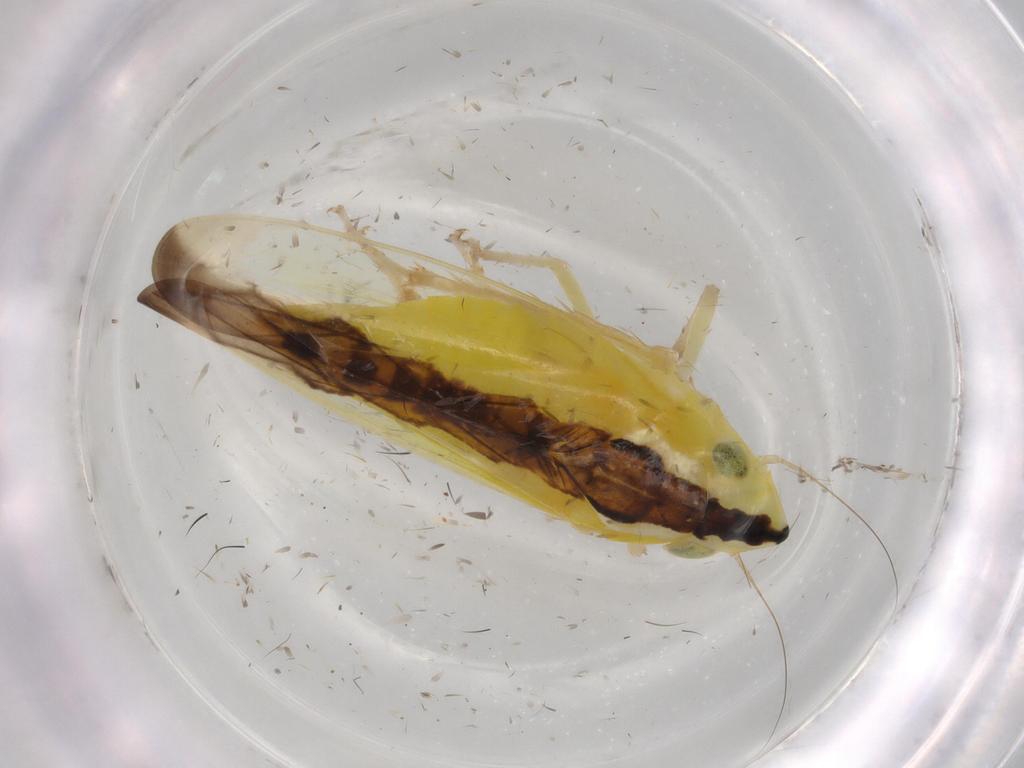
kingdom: Animalia
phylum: Arthropoda
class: Insecta
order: Hemiptera
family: Cicadellidae
